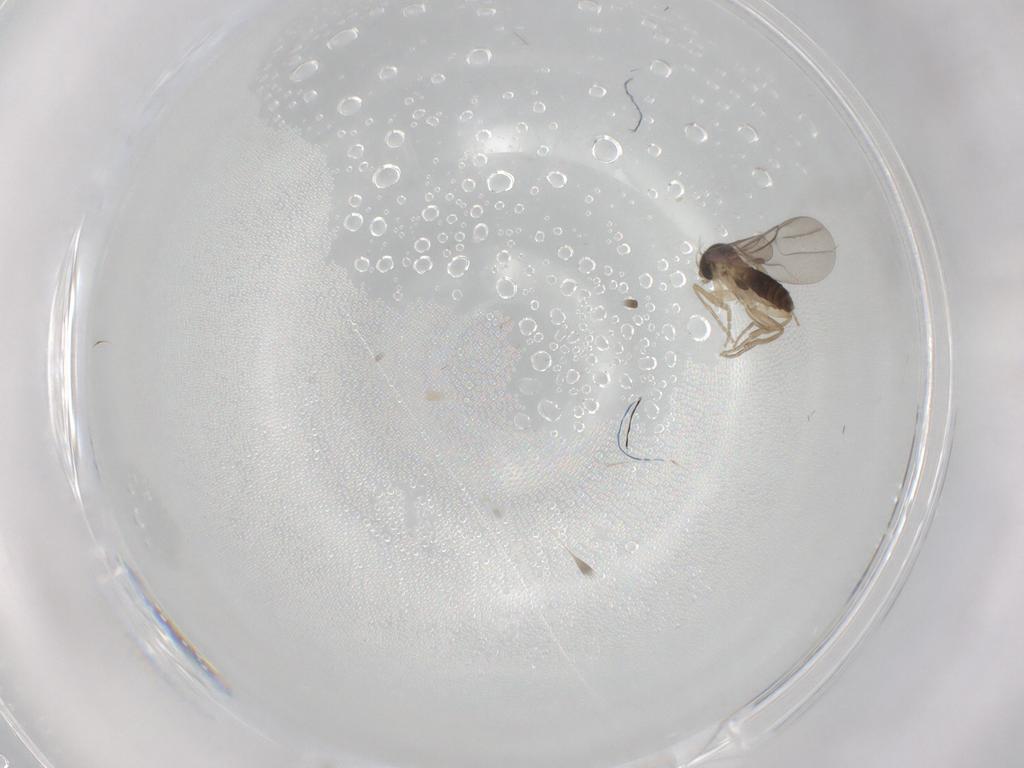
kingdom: Animalia
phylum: Arthropoda
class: Insecta
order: Diptera
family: Phoridae
